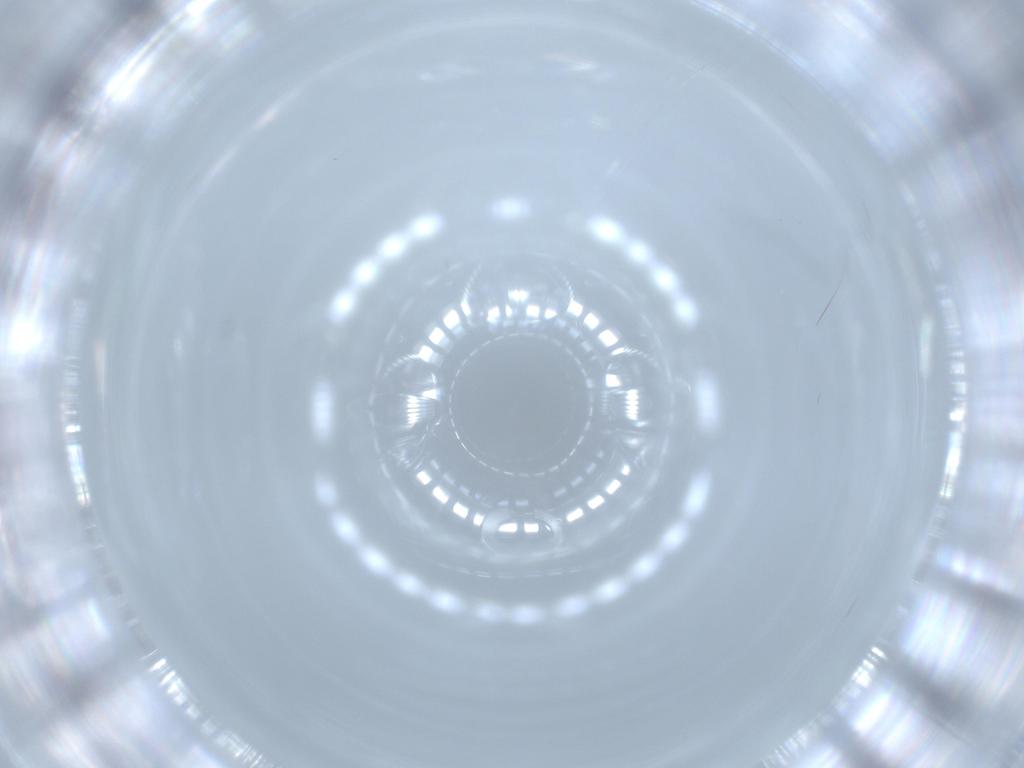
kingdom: Animalia
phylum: Arthropoda
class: Insecta
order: Diptera
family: Cecidomyiidae
